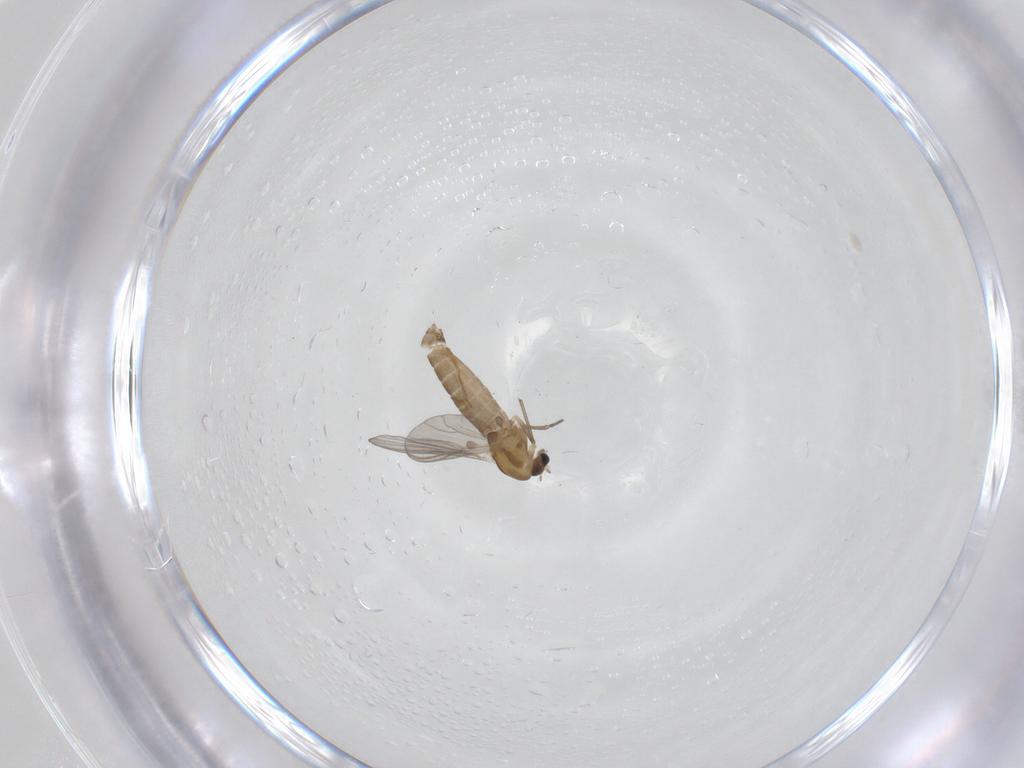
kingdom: Animalia
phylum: Arthropoda
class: Insecta
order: Diptera
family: Chironomidae
